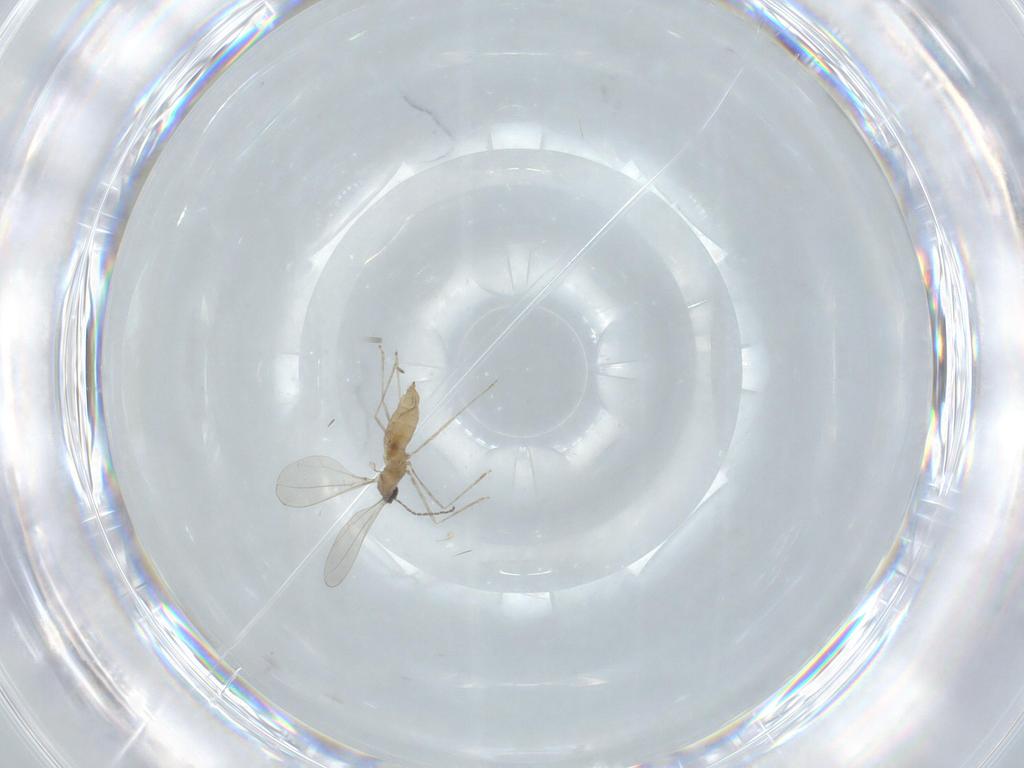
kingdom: Animalia
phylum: Arthropoda
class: Insecta
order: Diptera
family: Cecidomyiidae
